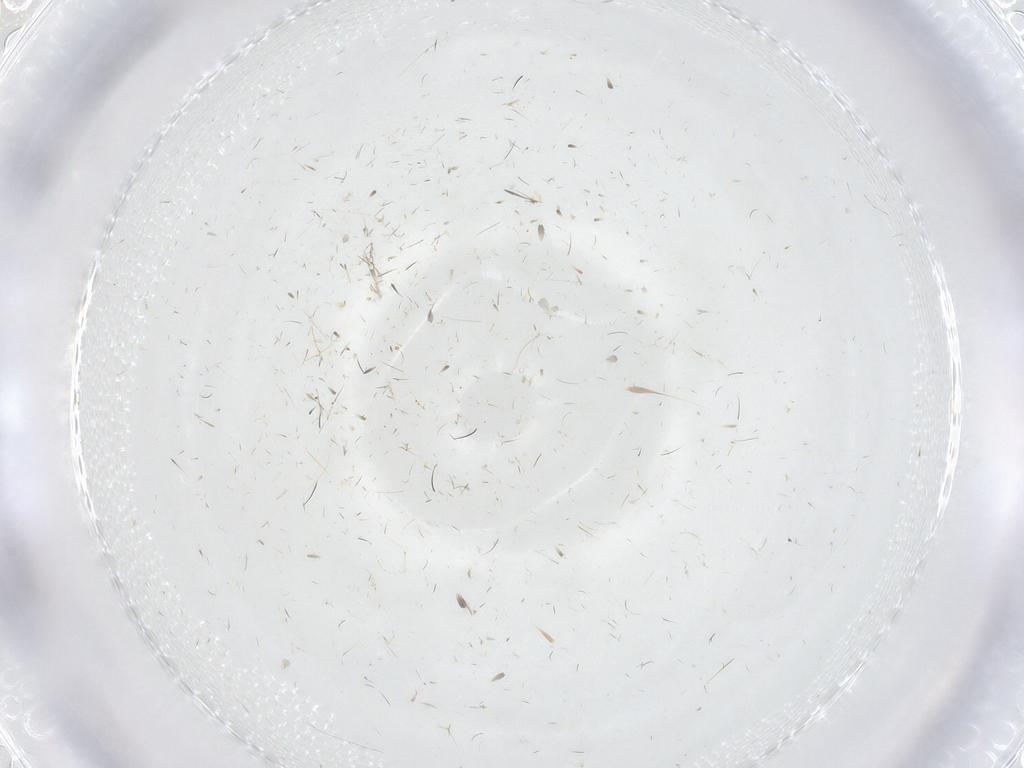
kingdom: Animalia
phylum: Arthropoda
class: Insecta
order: Diptera
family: Cecidomyiidae
